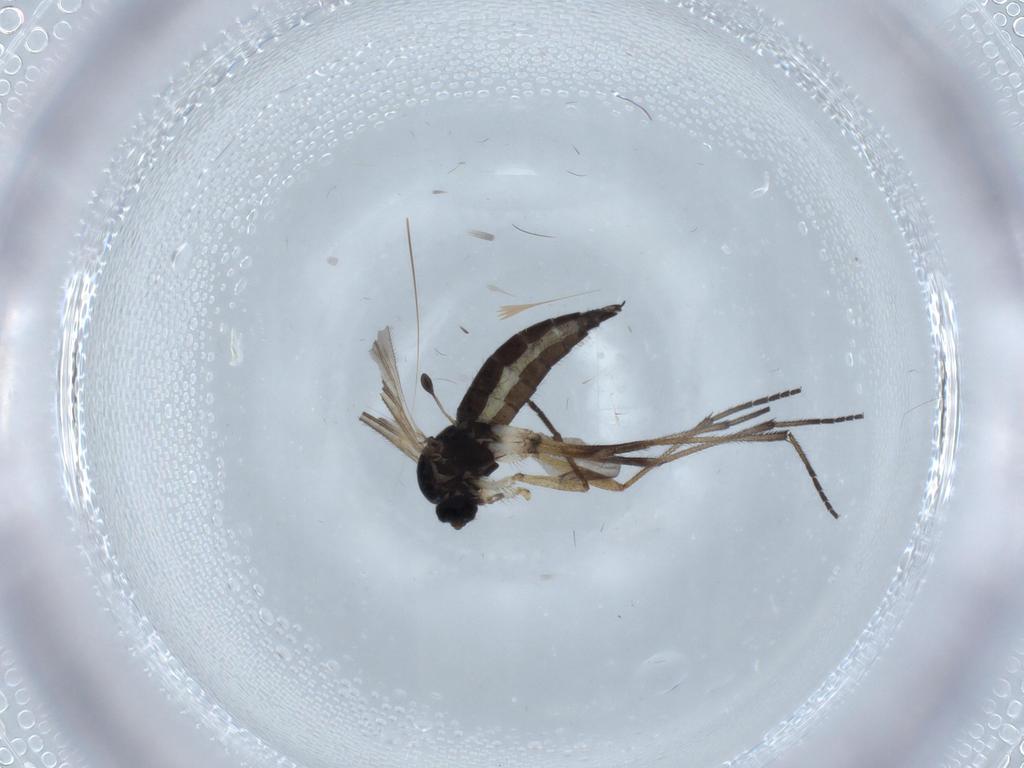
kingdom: Animalia
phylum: Arthropoda
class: Insecta
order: Diptera
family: Sciaridae
